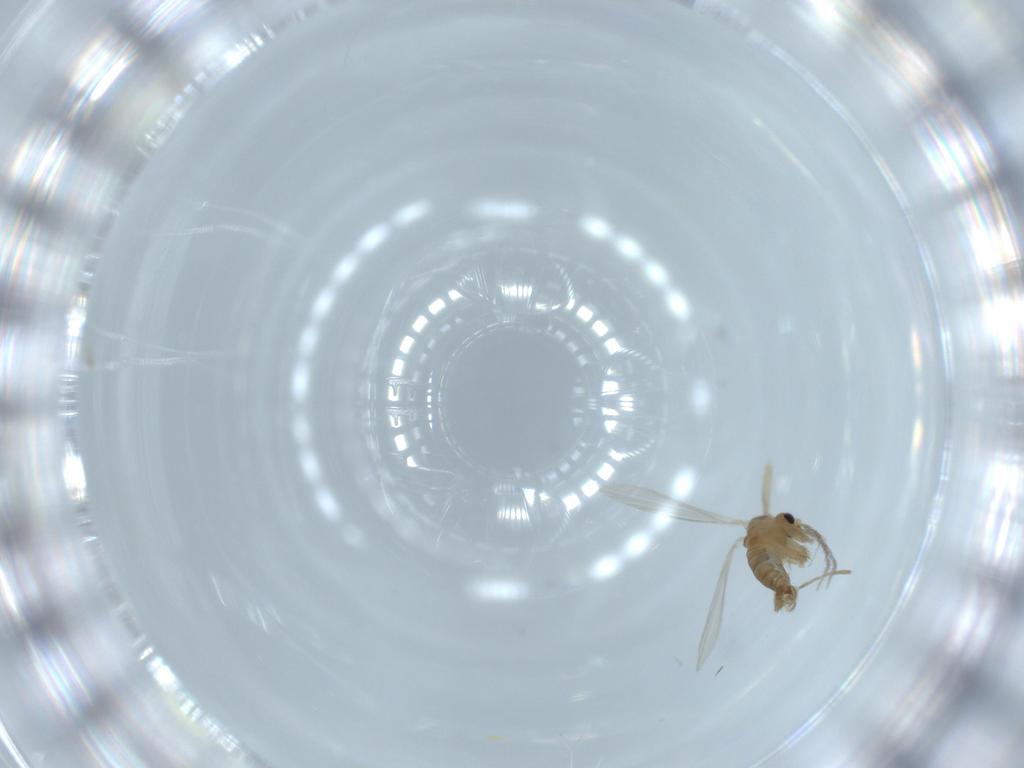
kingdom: Animalia
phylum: Arthropoda
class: Insecta
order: Diptera
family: Psychodidae
